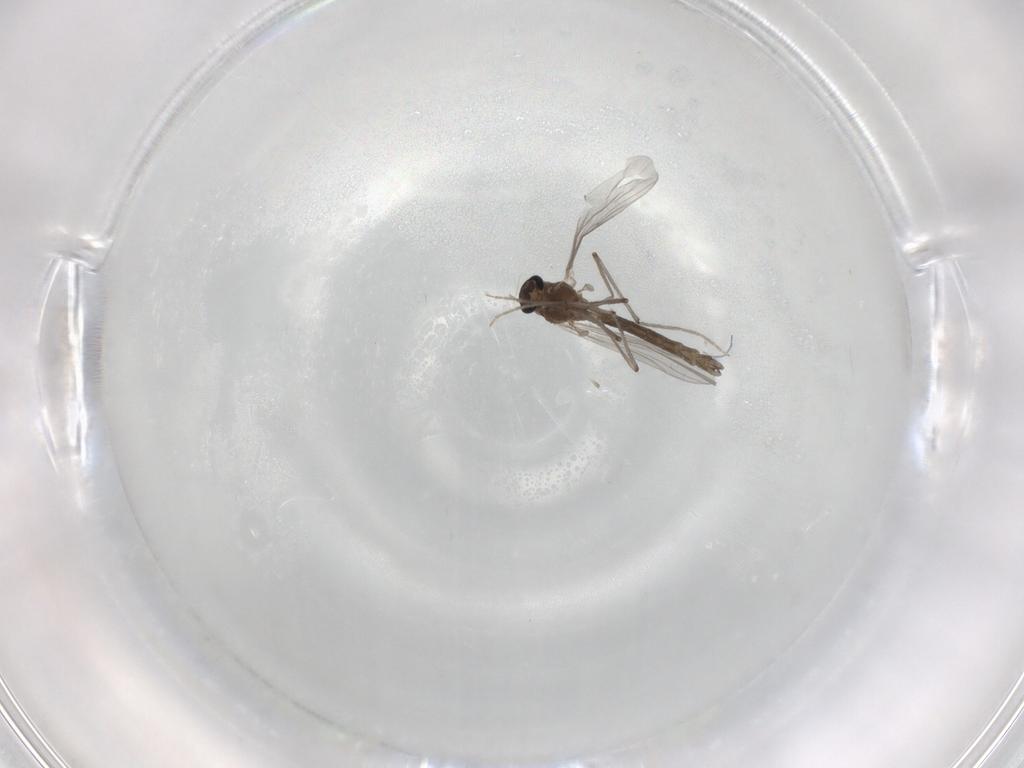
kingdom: Animalia
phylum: Arthropoda
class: Insecta
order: Diptera
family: Chironomidae
